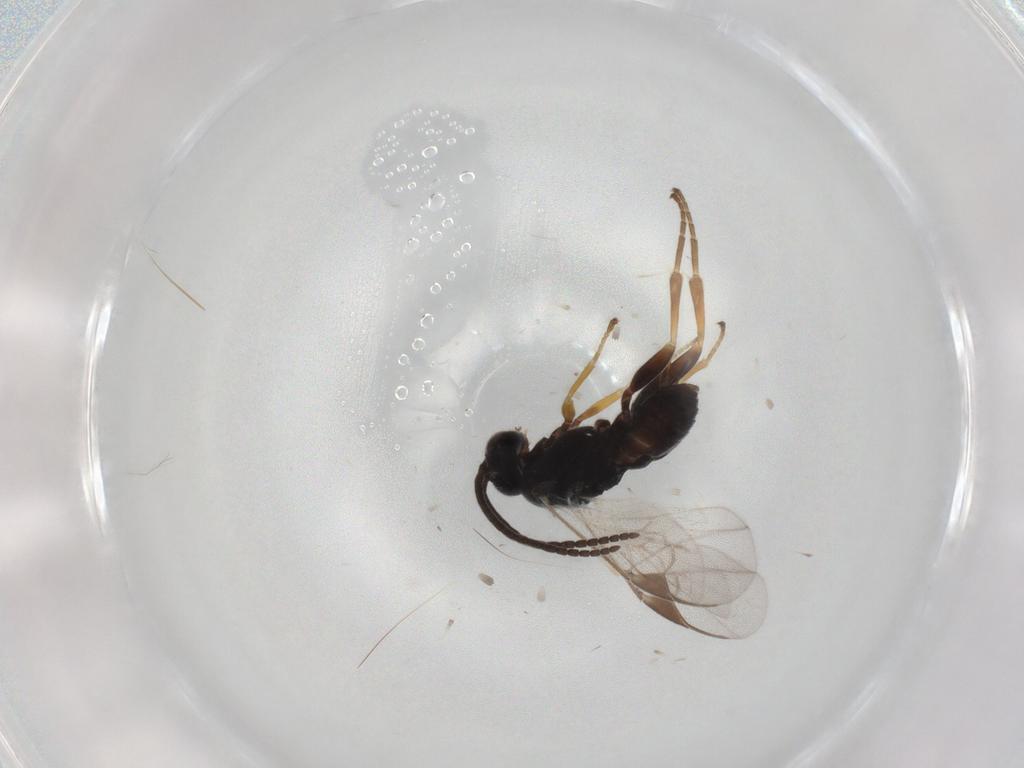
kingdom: Animalia
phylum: Arthropoda
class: Insecta
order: Hymenoptera
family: Braconidae
